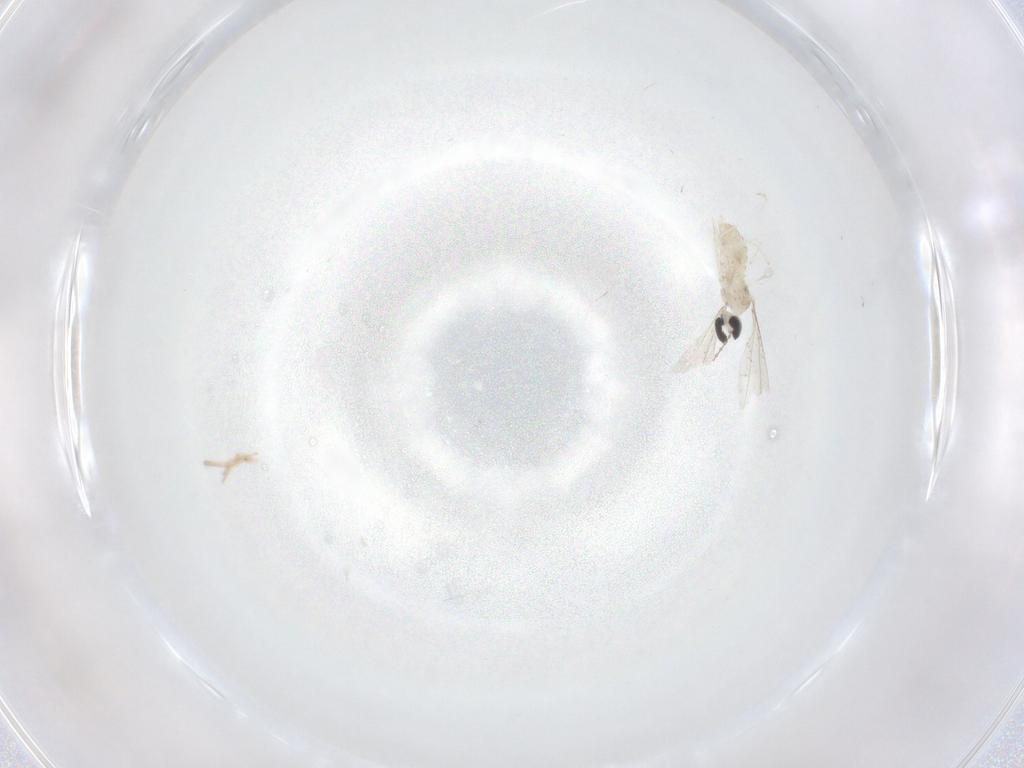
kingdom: Animalia
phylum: Arthropoda
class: Insecta
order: Diptera
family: Cecidomyiidae
